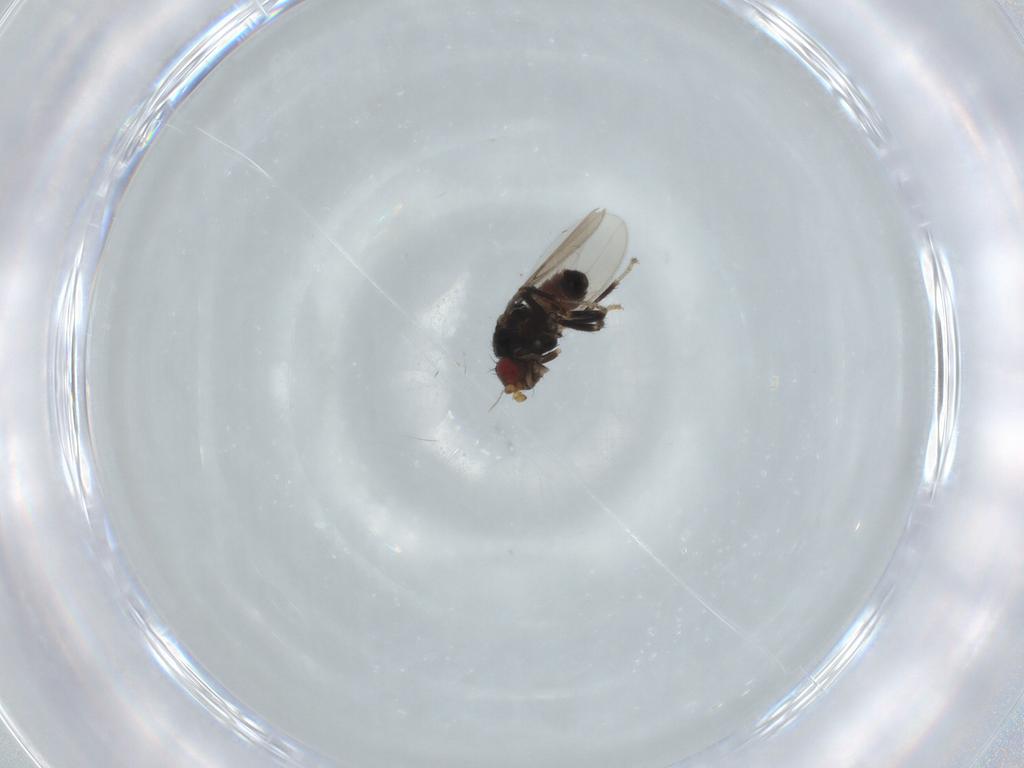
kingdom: Animalia
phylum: Arthropoda
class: Insecta
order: Diptera
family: Sphaeroceridae
